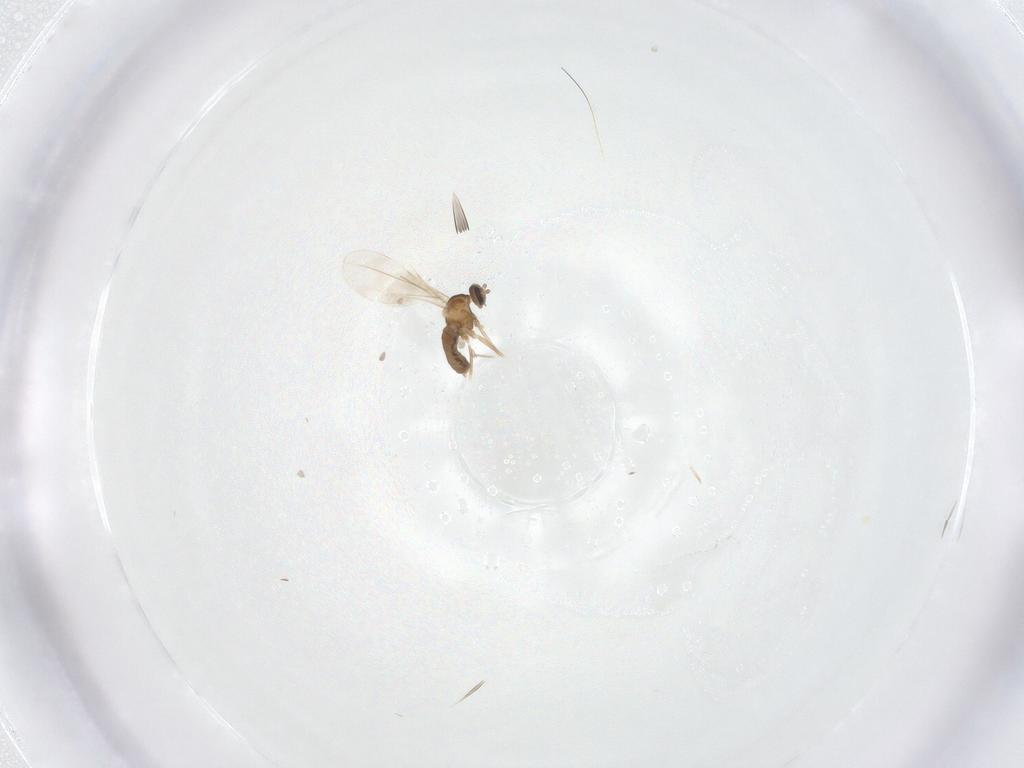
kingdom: Animalia
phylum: Arthropoda
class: Insecta
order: Diptera
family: Cecidomyiidae
